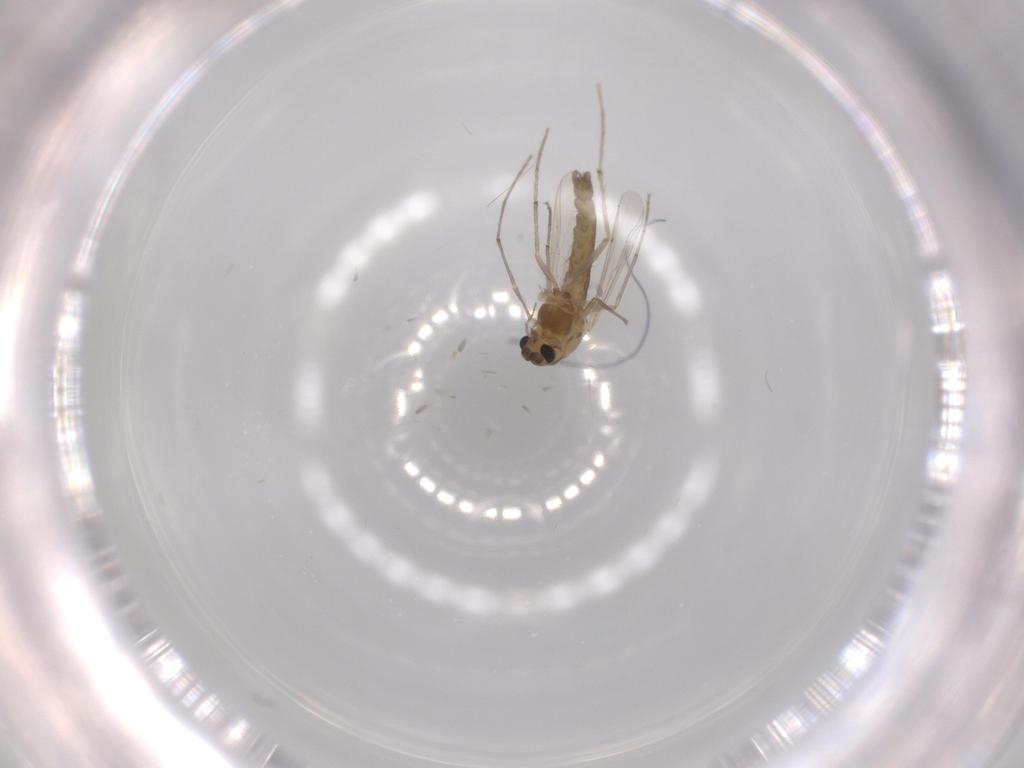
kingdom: Animalia
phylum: Arthropoda
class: Insecta
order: Diptera
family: Chironomidae
